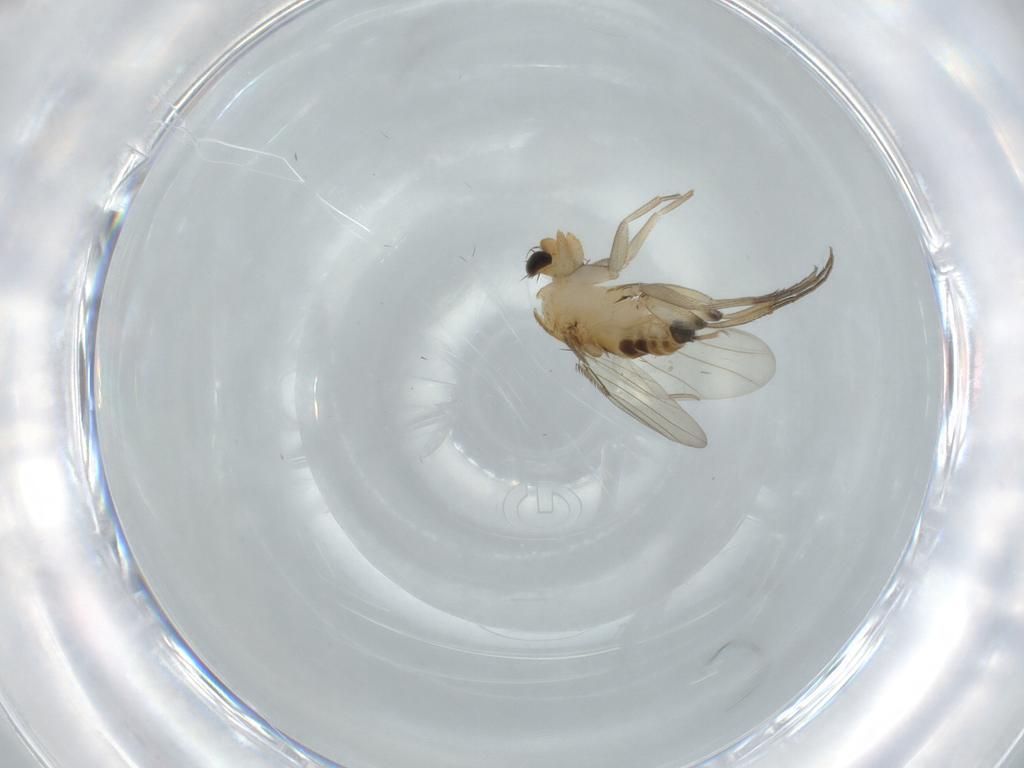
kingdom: Animalia
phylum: Arthropoda
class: Insecta
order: Diptera
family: Phoridae
